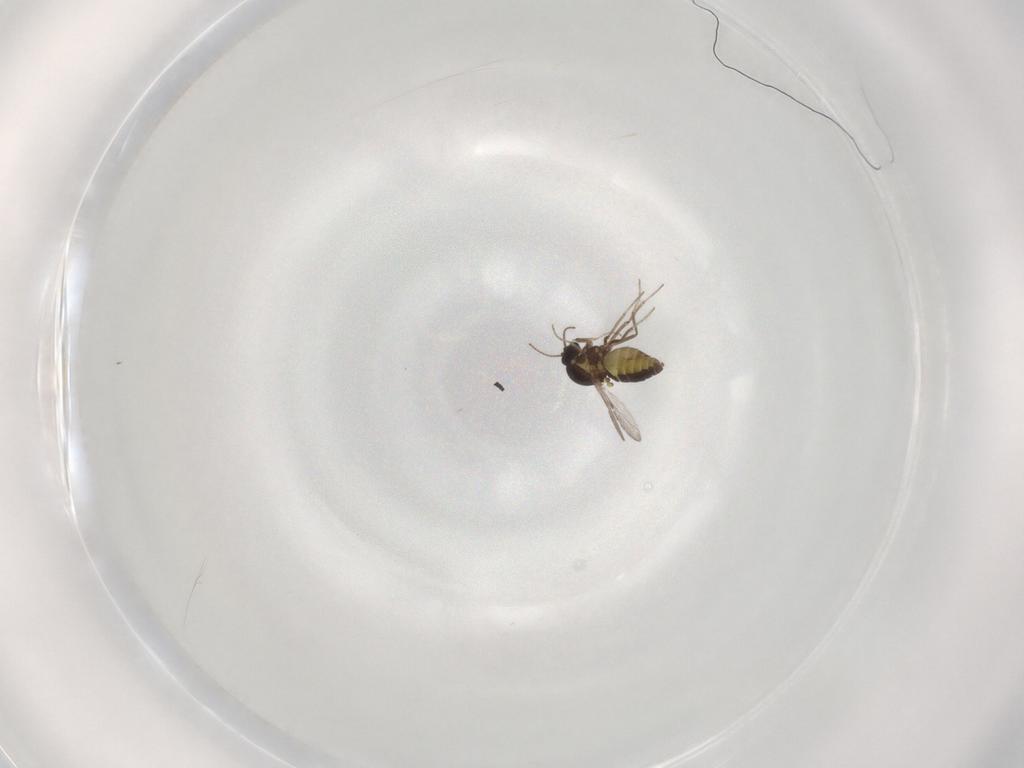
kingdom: Animalia
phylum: Arthropoda
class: Insecta
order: Diptera
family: Ceratopogonidae
